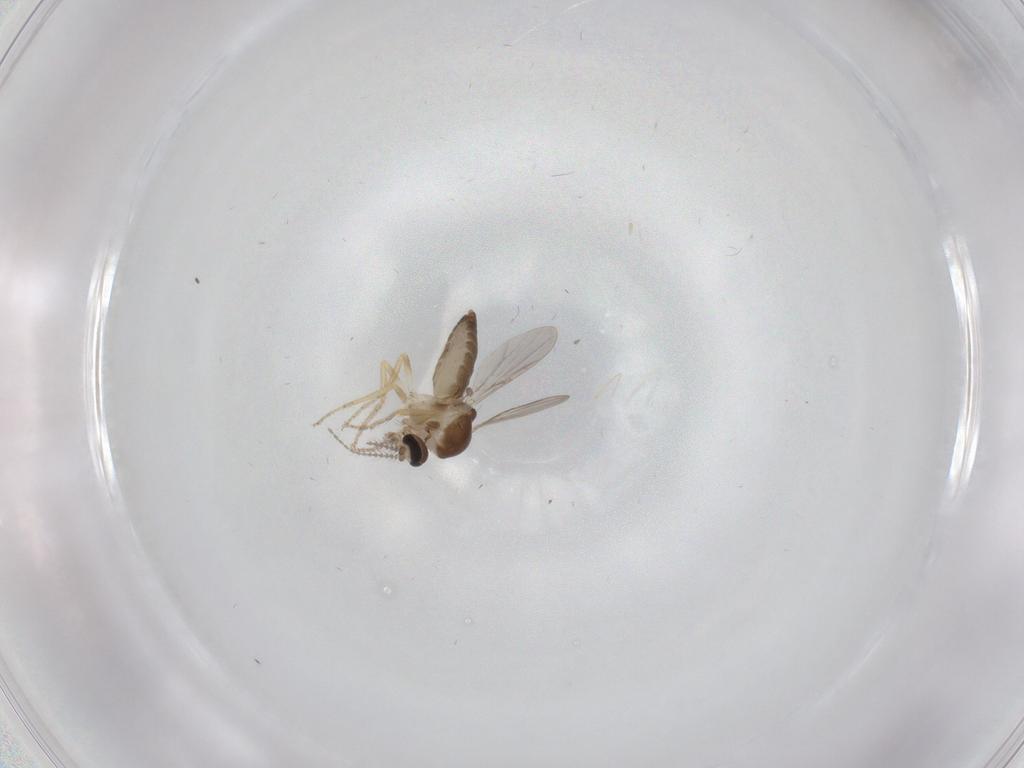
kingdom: Animalia
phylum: Arthropoda
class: Insecta
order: Diptera
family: Ceratopogonidae
